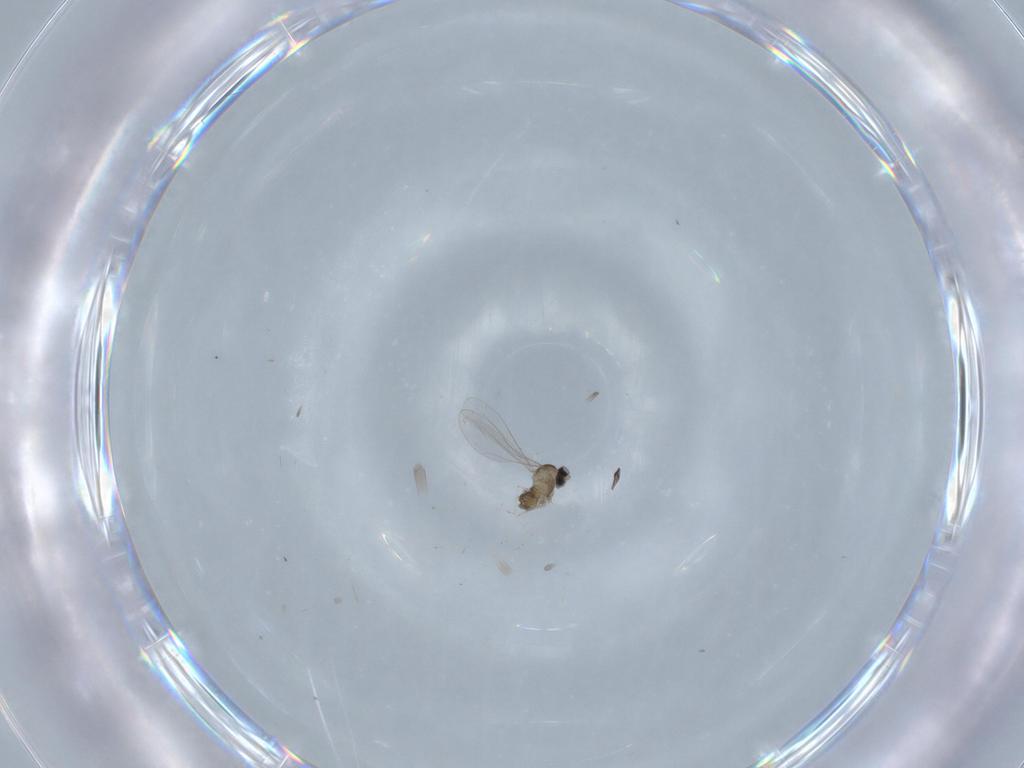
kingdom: Animalia
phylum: Arthropoda
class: Insecta
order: Diptera
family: Cecidomyiidae
